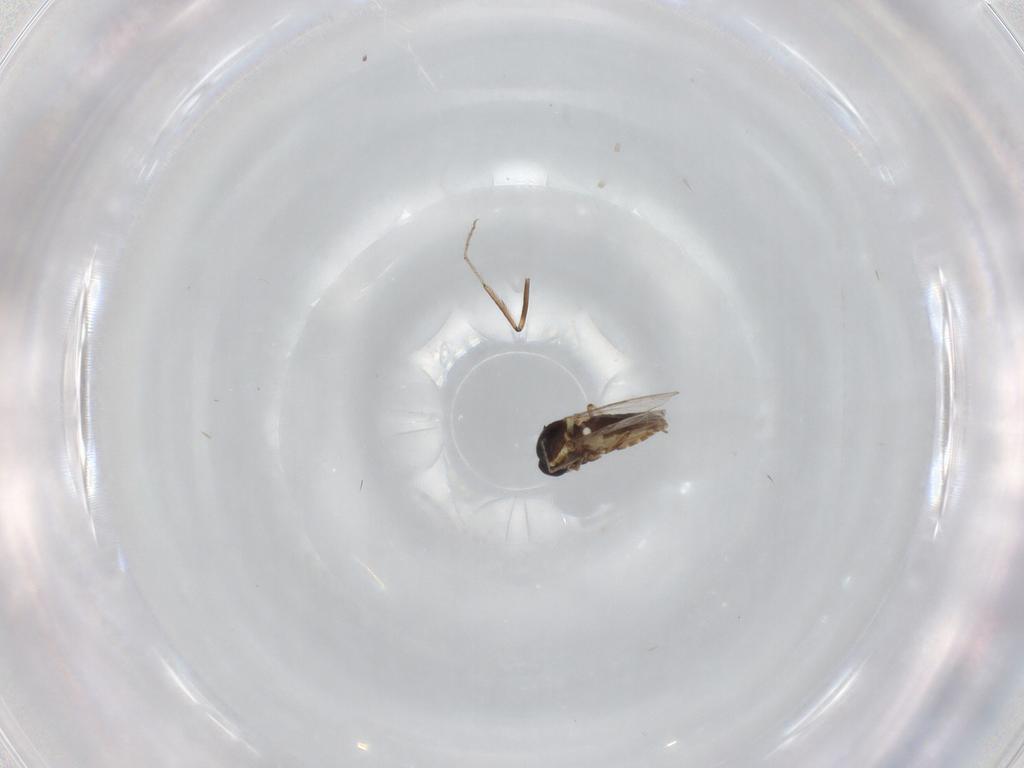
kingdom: Animalia
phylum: Arthropoda
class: Insecta
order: Diptera
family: Ceratopogonidae
